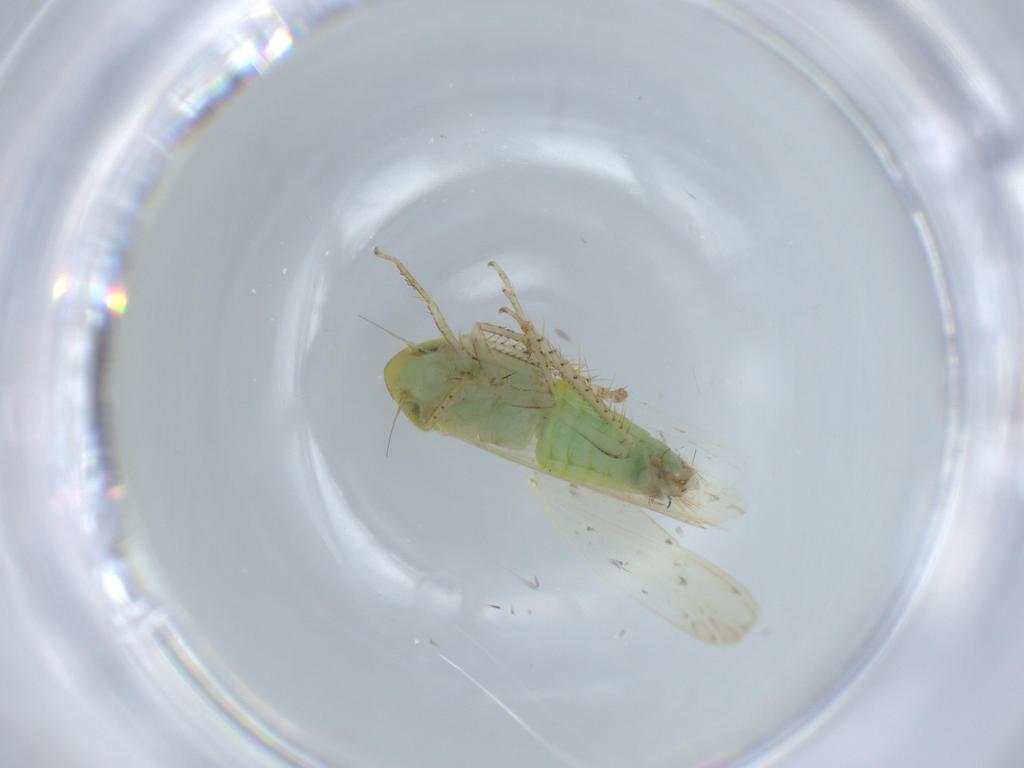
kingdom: Animalia
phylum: Arthropoda
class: Insecta
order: Hemiptera
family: Cicadellidae
